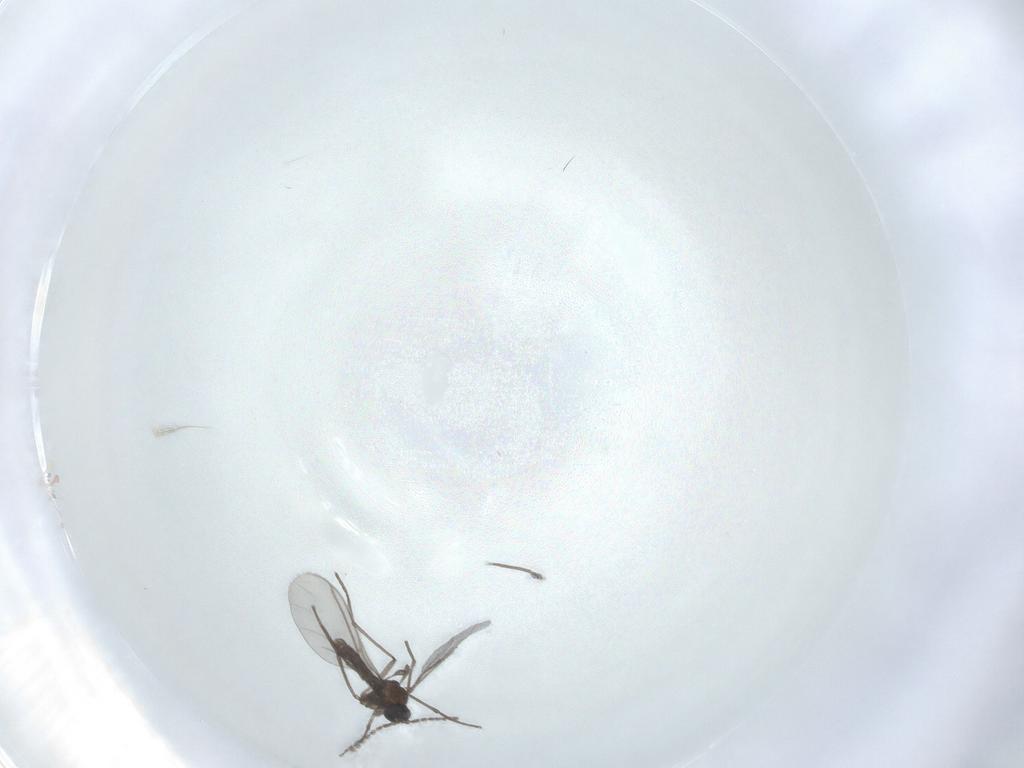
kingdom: Animalia
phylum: Arthropoda
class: Insecta
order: Diptera
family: Sciaridae
